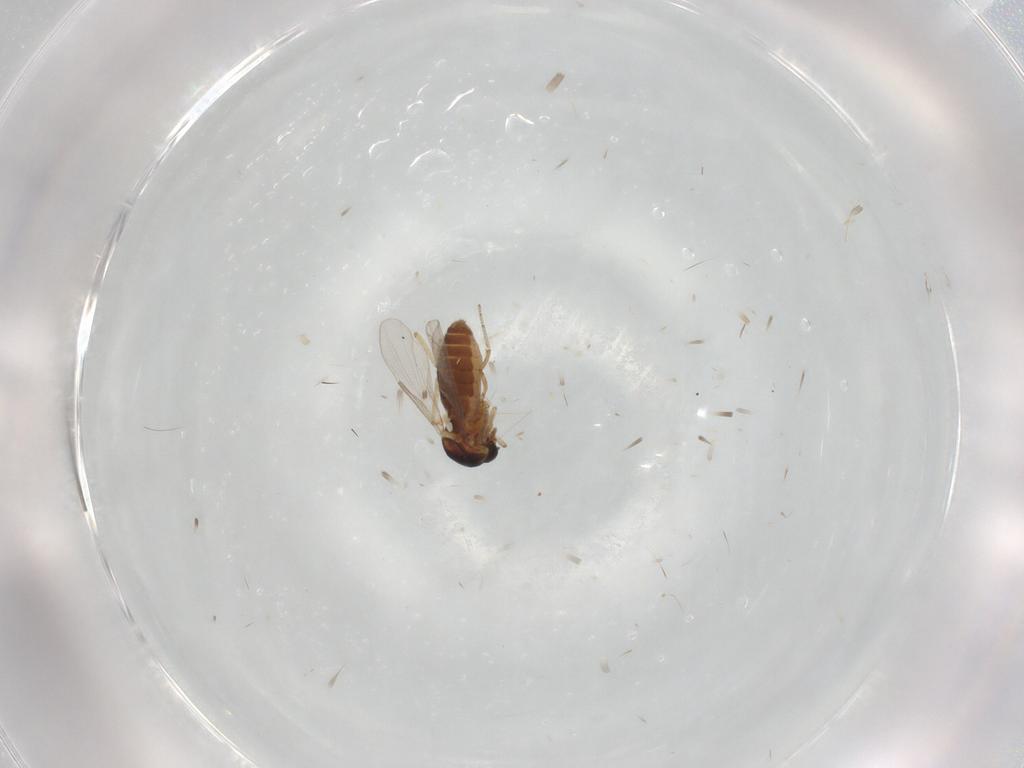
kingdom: Animalia
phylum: Arthropoda
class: Insecta
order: Diptera
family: Ceratopogonidae
